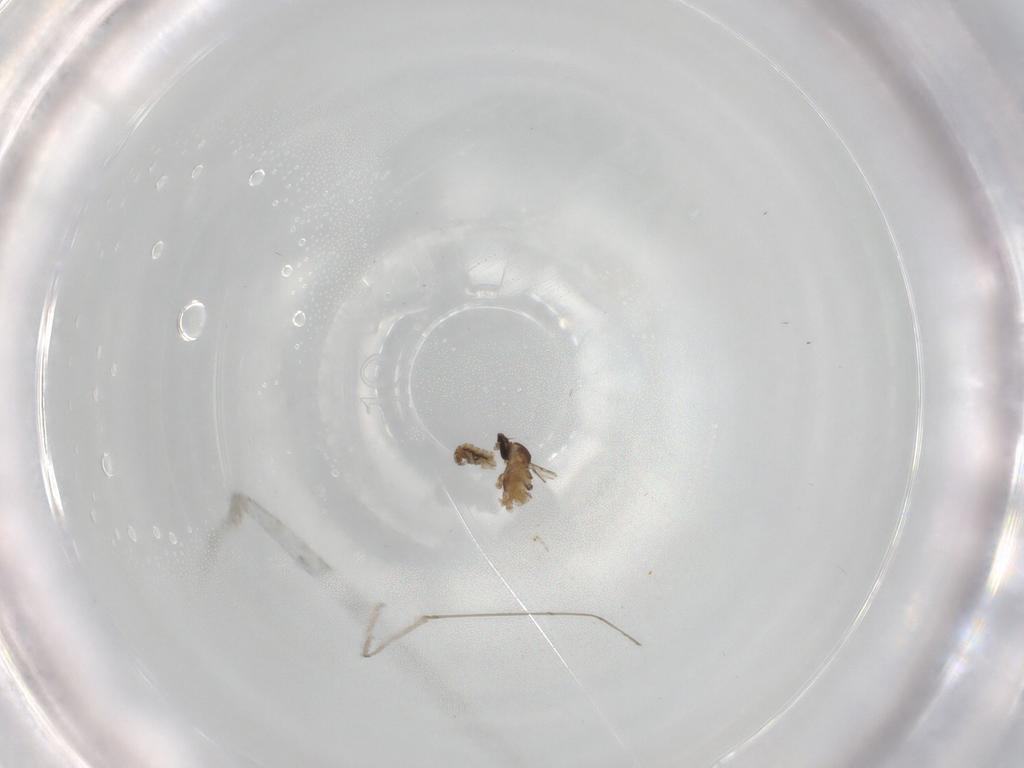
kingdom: Animalia
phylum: Arthropoda
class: Insecta
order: Diptera
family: Cecidomyiidae
